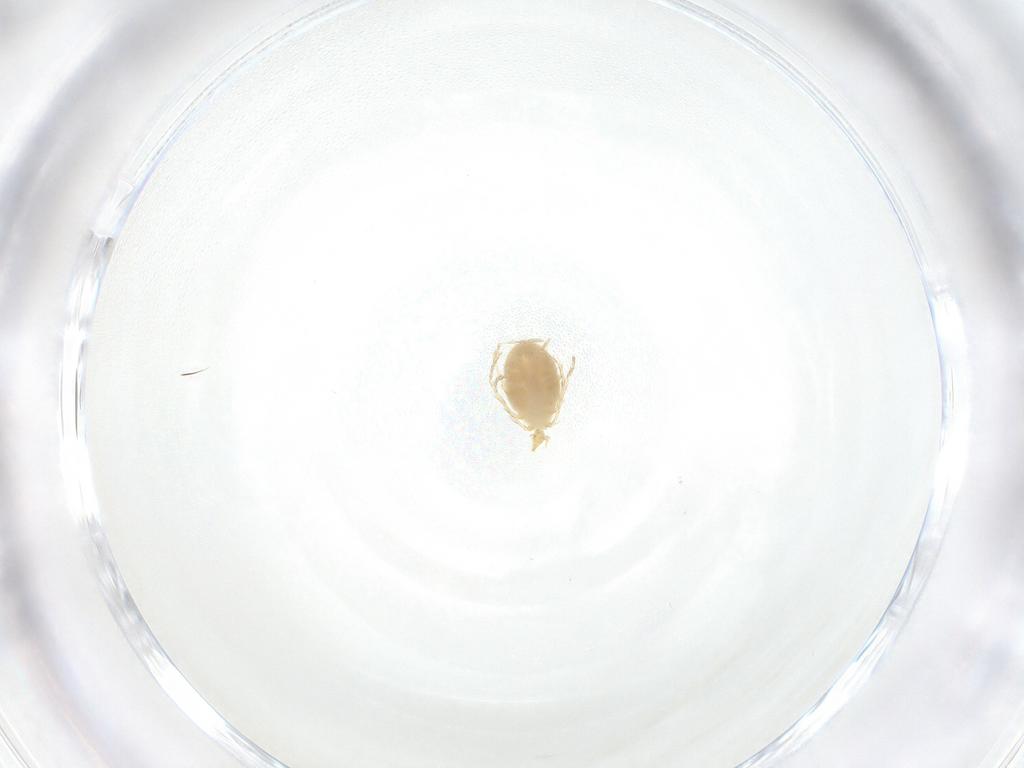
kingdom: Animalia
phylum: Arthropoda
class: Arachnida
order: Trombidiformes
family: Erythraeidae
